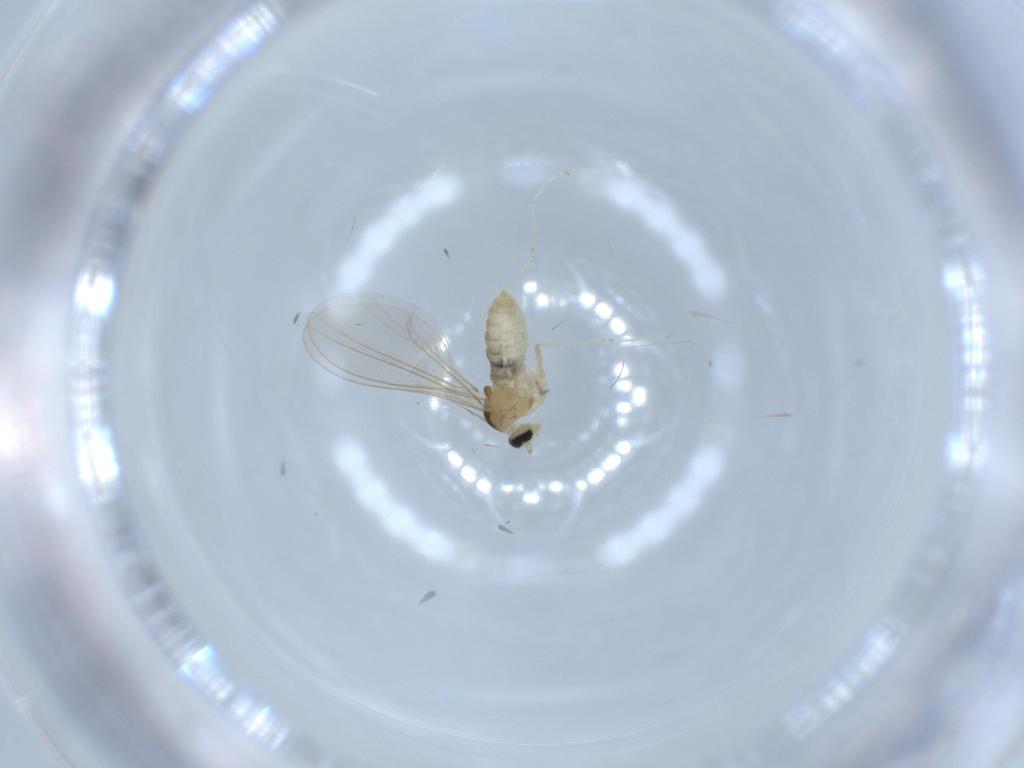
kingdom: Animalia
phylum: Arthropoda
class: Insecta
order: Diptera
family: Cecidomyiidae
